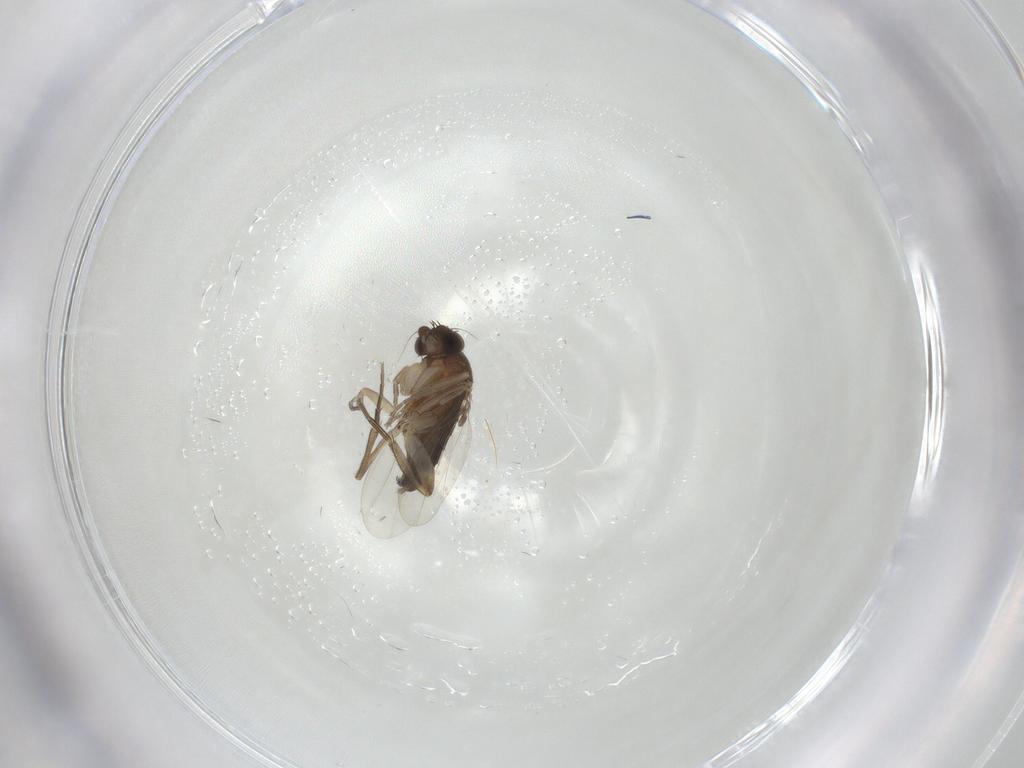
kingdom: Animalia
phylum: Arthropoda
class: Insecta
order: Diptera
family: Phoridae
